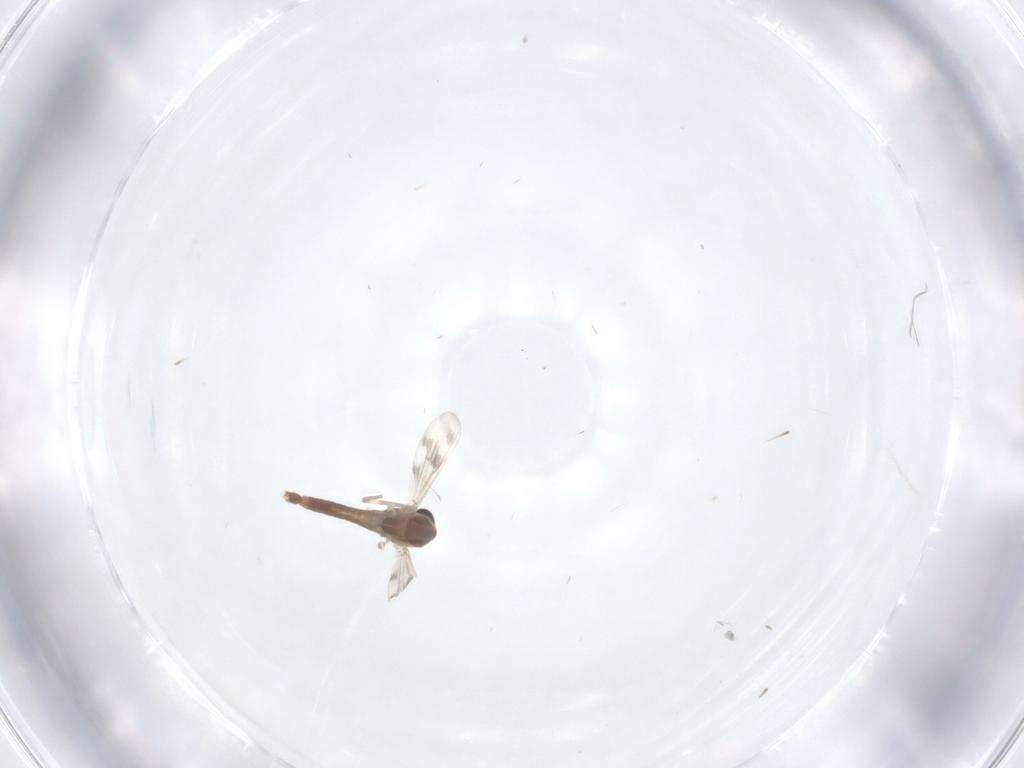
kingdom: Animalia
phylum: Arthropoda
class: Insecta
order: Diptera
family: Chironomidae
